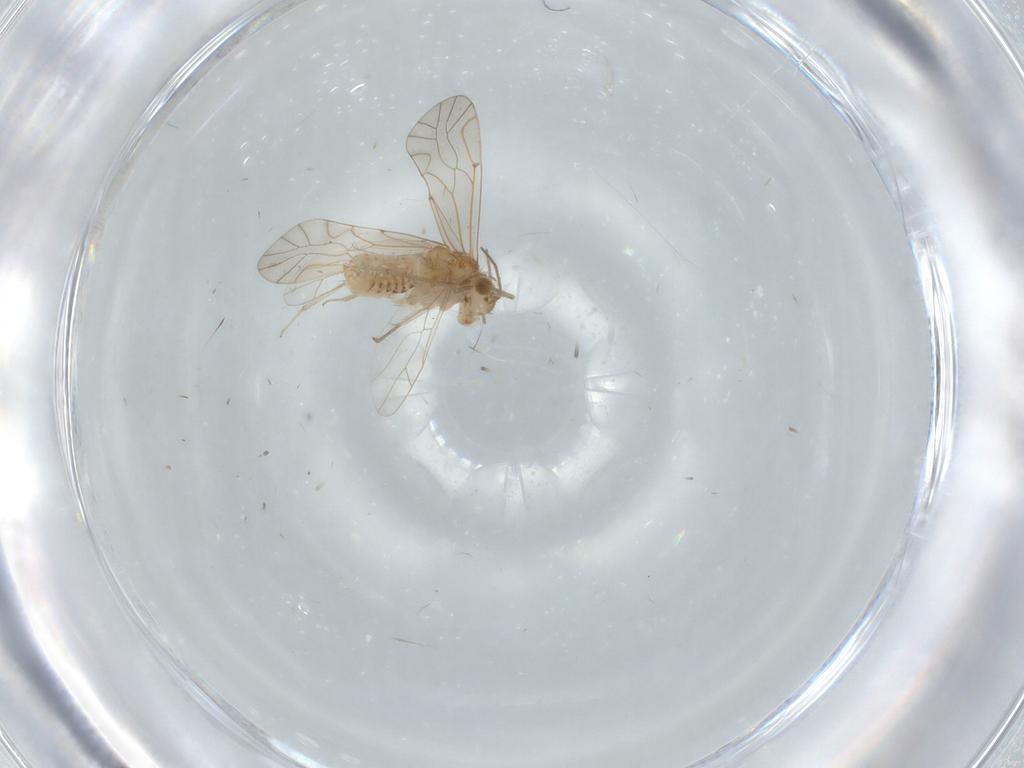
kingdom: Animalia
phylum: Arthropoda
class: Insecta
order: Psocodea
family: Lachesillidae
